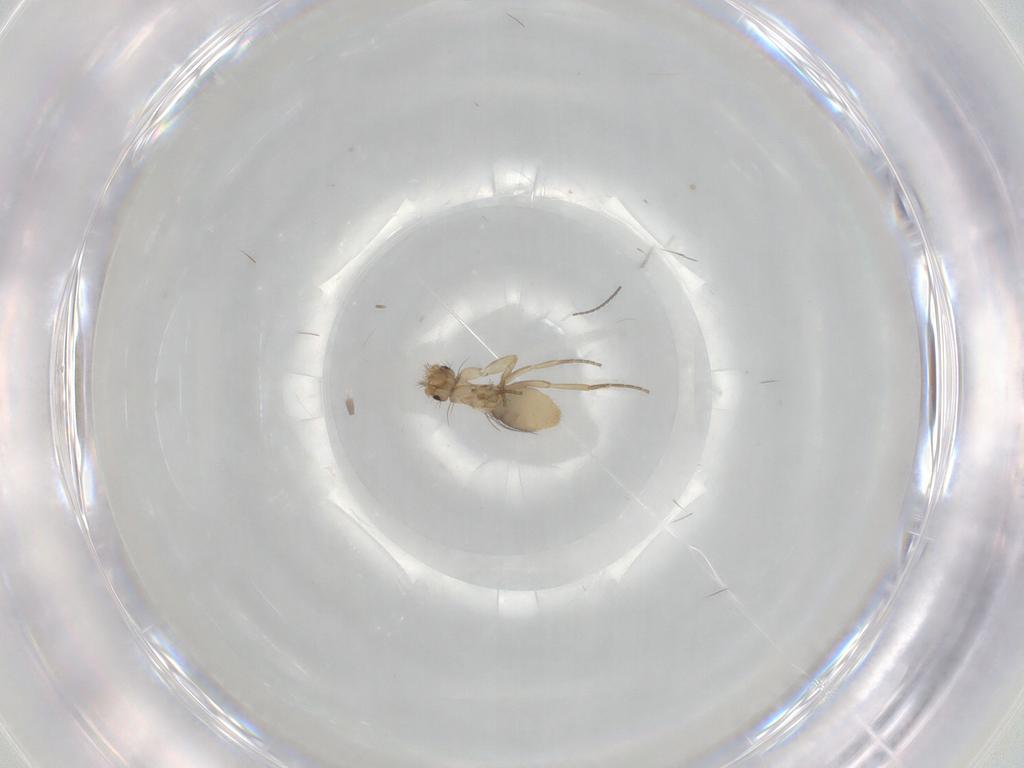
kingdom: Animalia
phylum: Arthropoda
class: Insecta
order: Diptera
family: Phoridae
